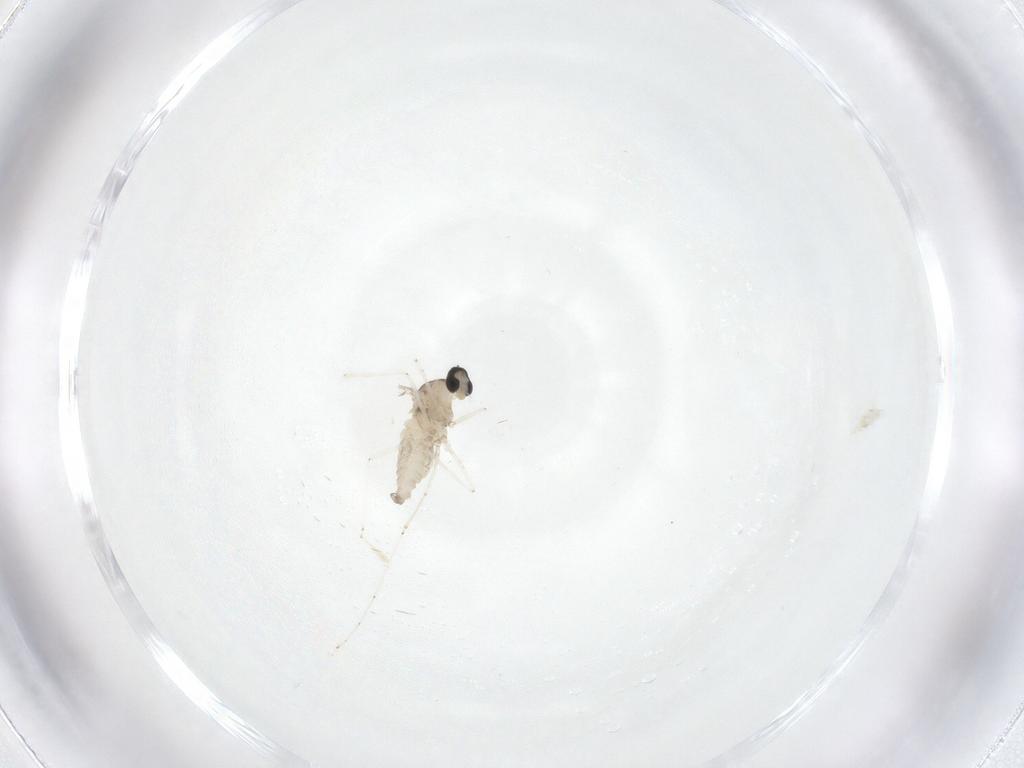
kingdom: Animalia
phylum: Arthropoda
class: Insecta
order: Diptera
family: Cecidomyiidae
